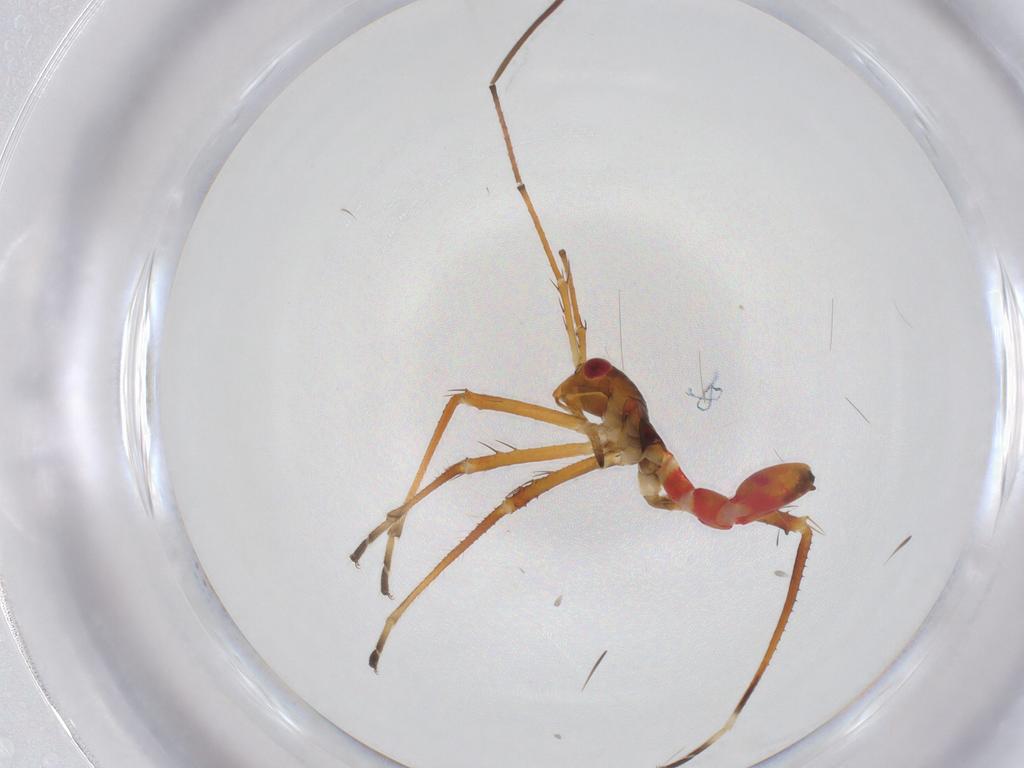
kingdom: Animalia
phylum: Arthropoda
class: Insecta
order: Hemiptera
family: Colobathristidae
